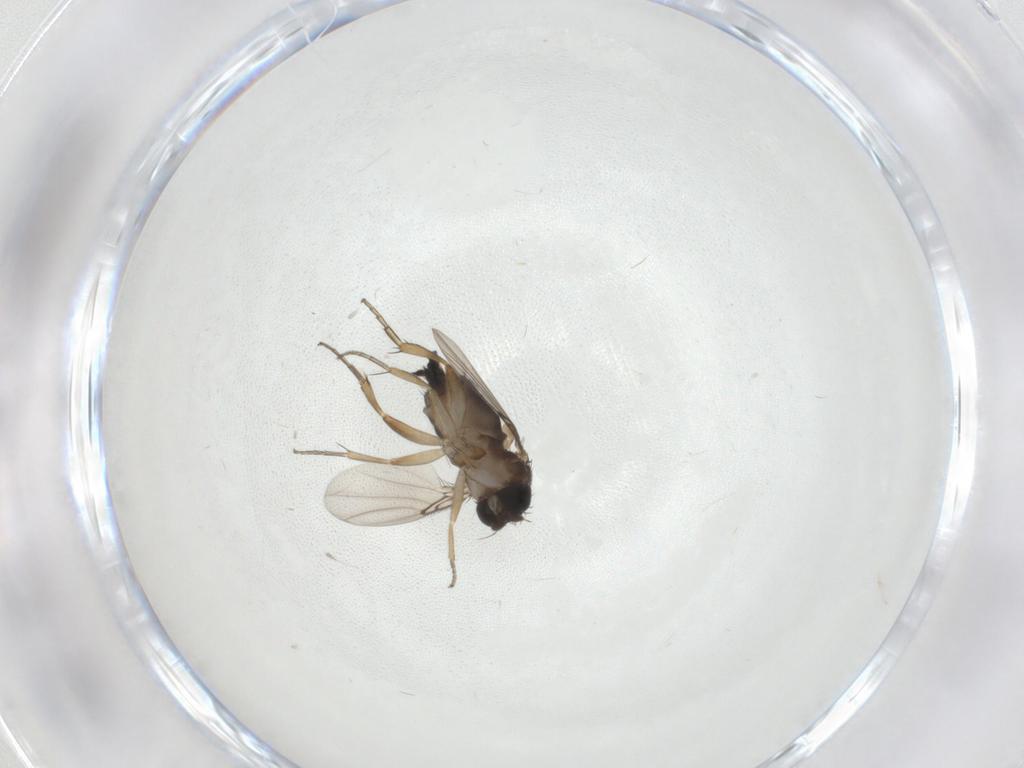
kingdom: Animalia
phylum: Arthropoda
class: Insecta
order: Diptera
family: Phoridae
